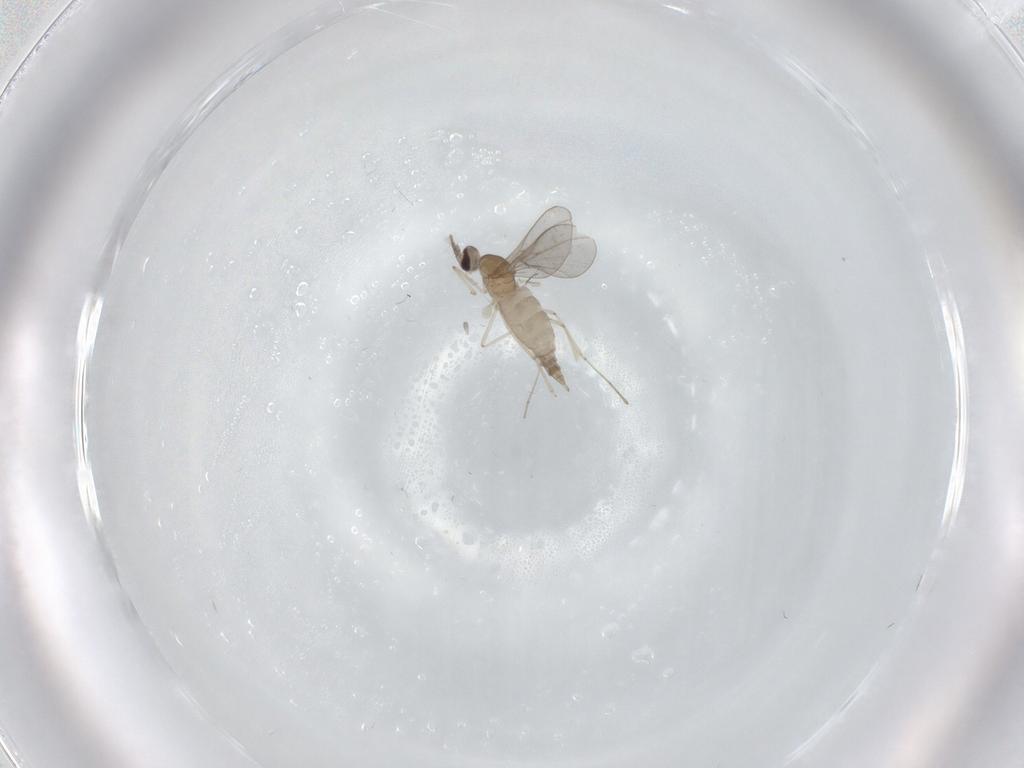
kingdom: Animalia
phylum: Arthropoda
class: Insecta
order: Diptera
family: Cecidomyiidae
